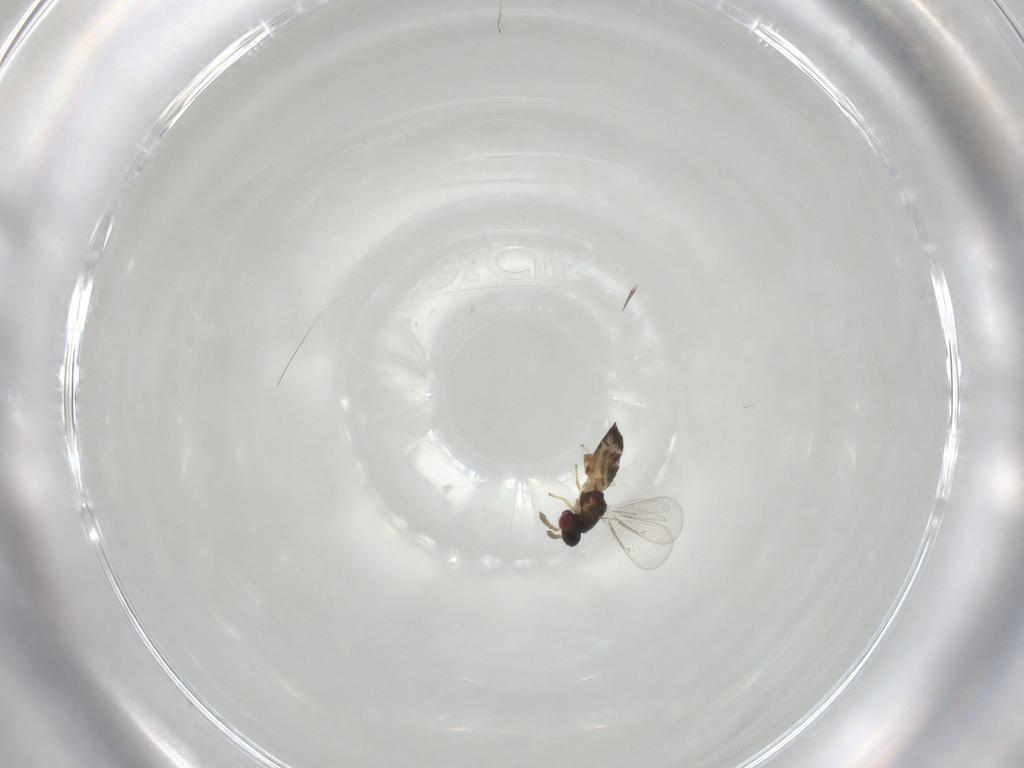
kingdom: Animalia
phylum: Arthropoda
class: Insecta
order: Hymenoptera
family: Eulophidae
